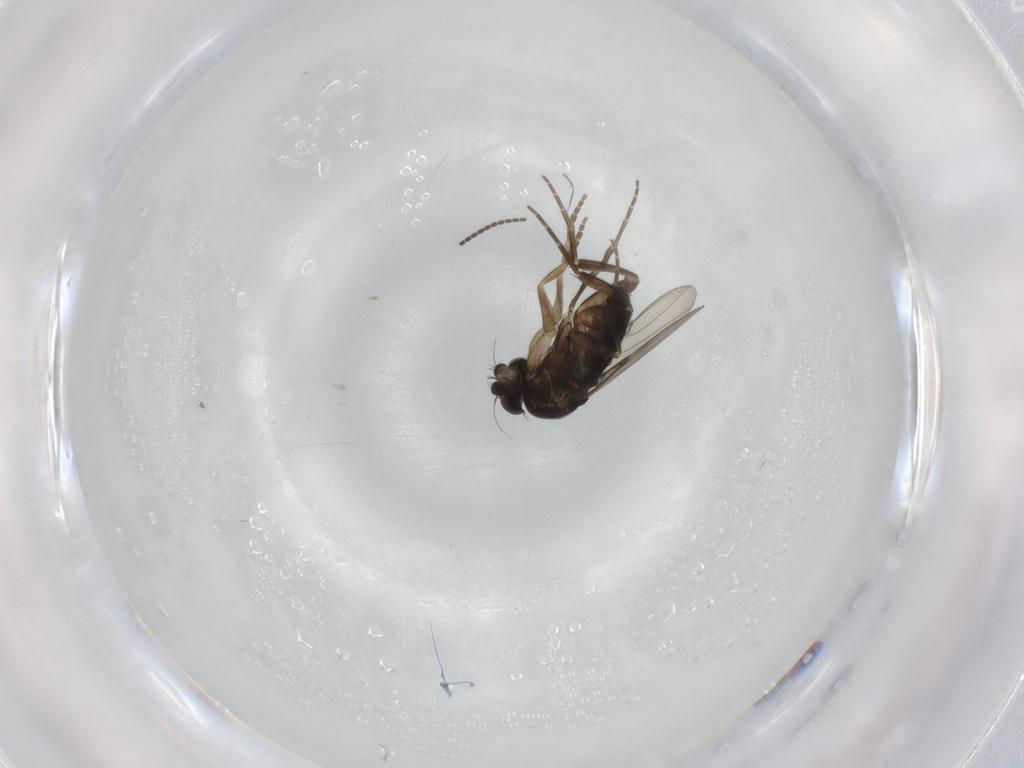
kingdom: Animalia
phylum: Arthropoda
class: Insecta
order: Diptera
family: Phoridae
